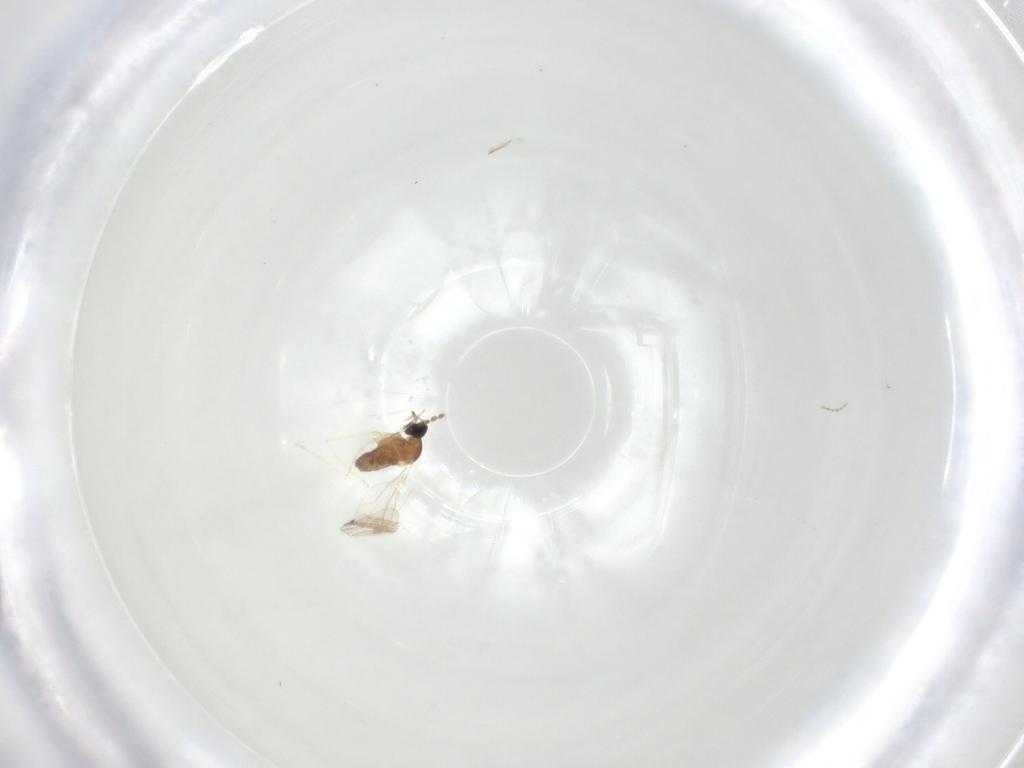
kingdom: Animalia
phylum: Arthropoda
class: Insecta
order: Diptera
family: Cecidomyiidae
